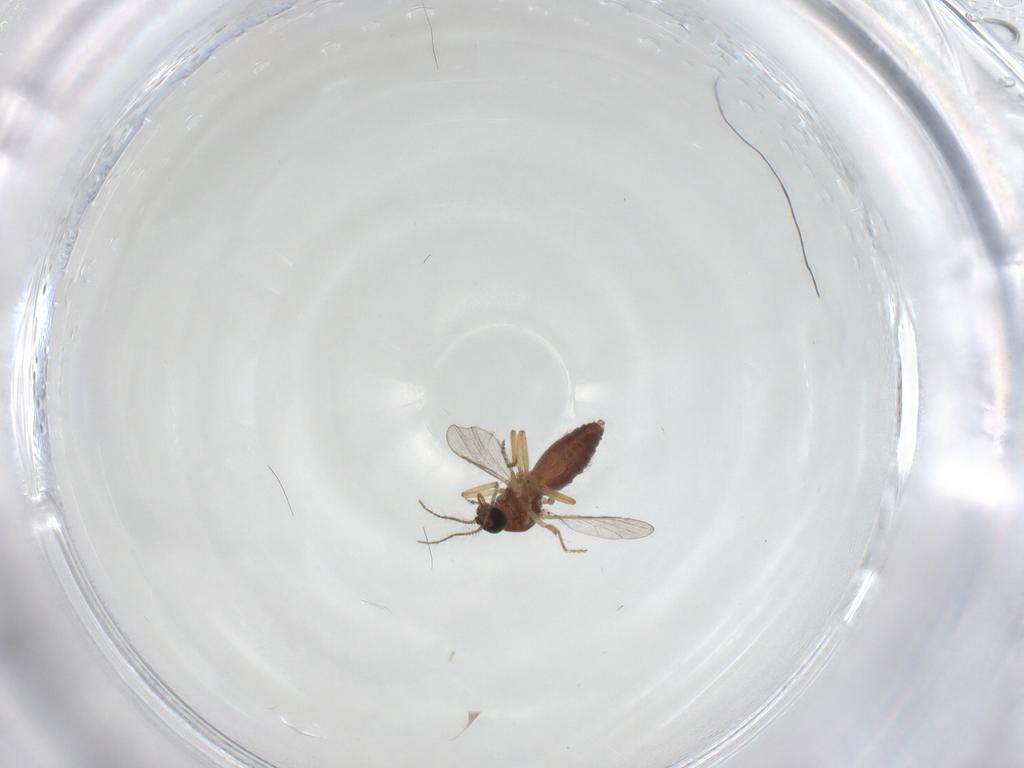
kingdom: Animalia
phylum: Arthropoda
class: Insecta
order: Diptera
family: Ceratopogonidae
